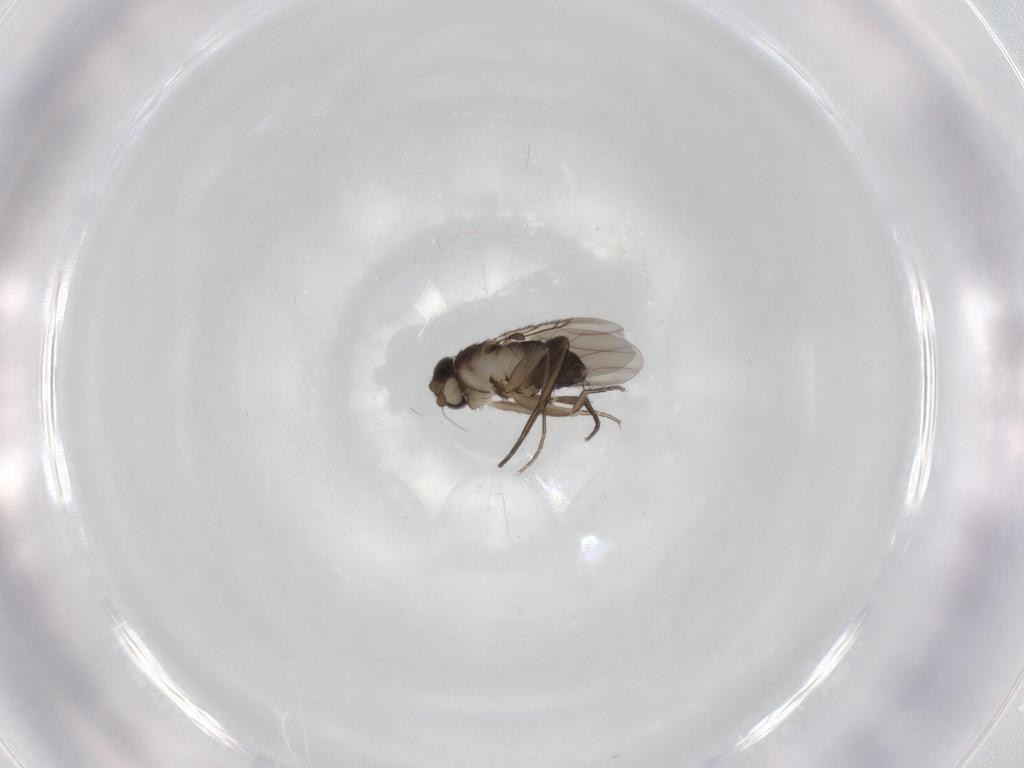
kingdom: Animalia
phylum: Arthropoda
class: Insecta
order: Diptera
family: Phoridae
